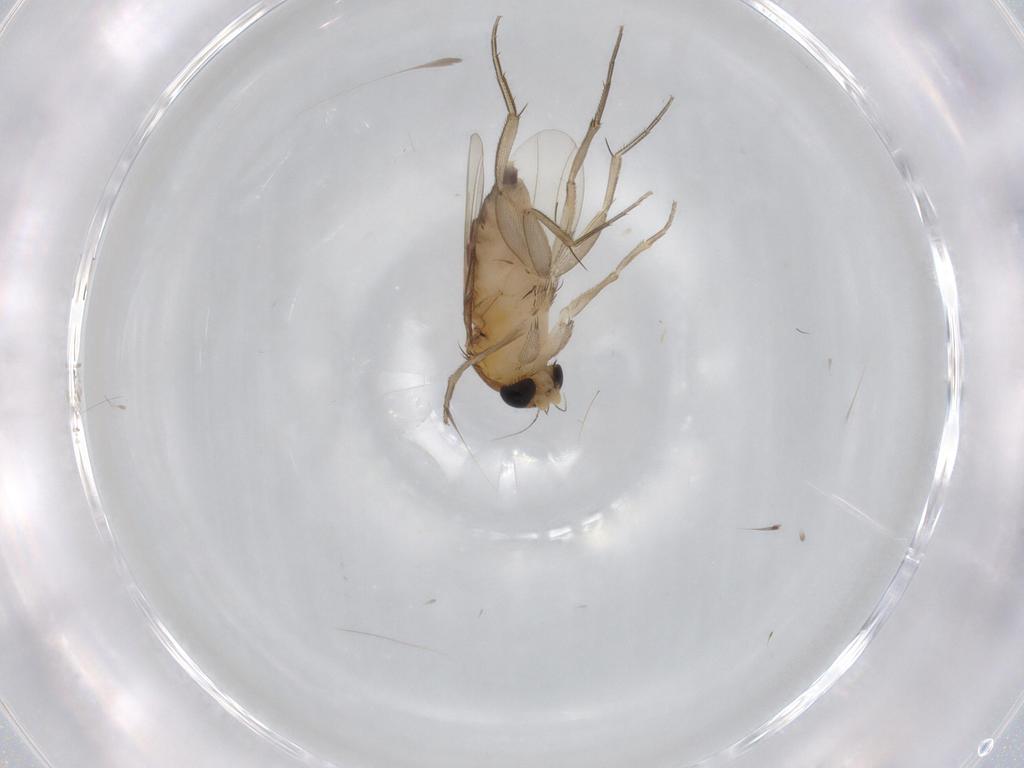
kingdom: Animalia
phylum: Arthropoda
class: Insecta
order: Diptera
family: Phoridae
